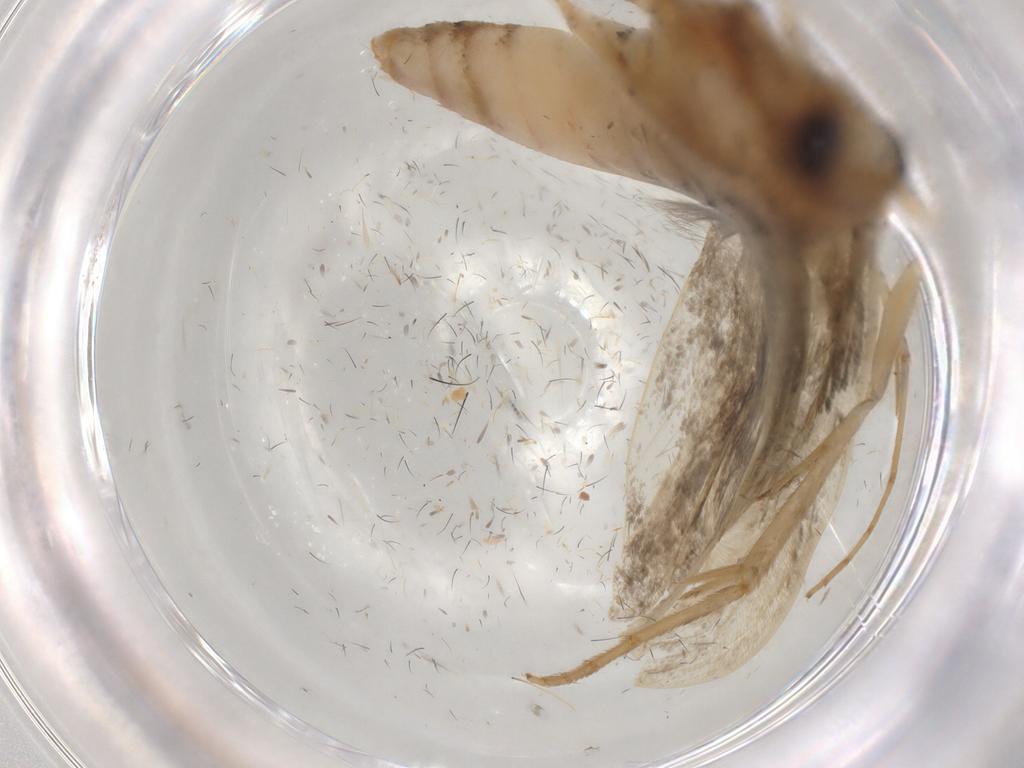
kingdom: Animalia
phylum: Arthropoda
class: Insecta
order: Lepidoptera
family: Yponomeutidae
